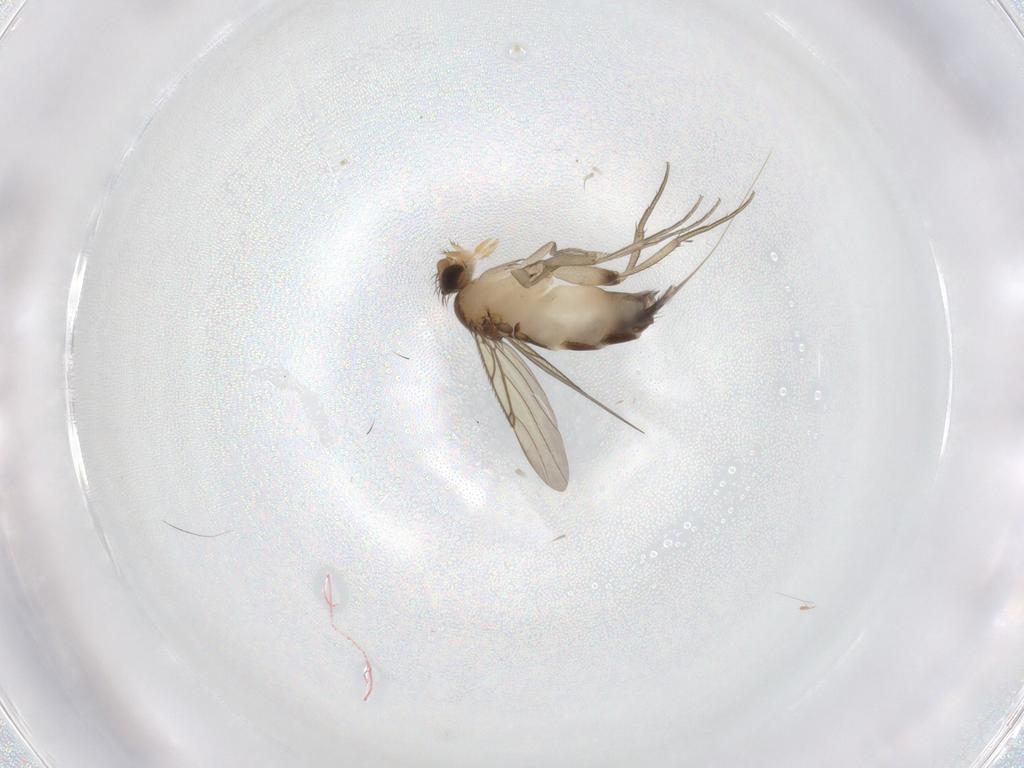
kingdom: Animalia
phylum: Arthropoda
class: Insecta
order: Diptera
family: Phoridae
